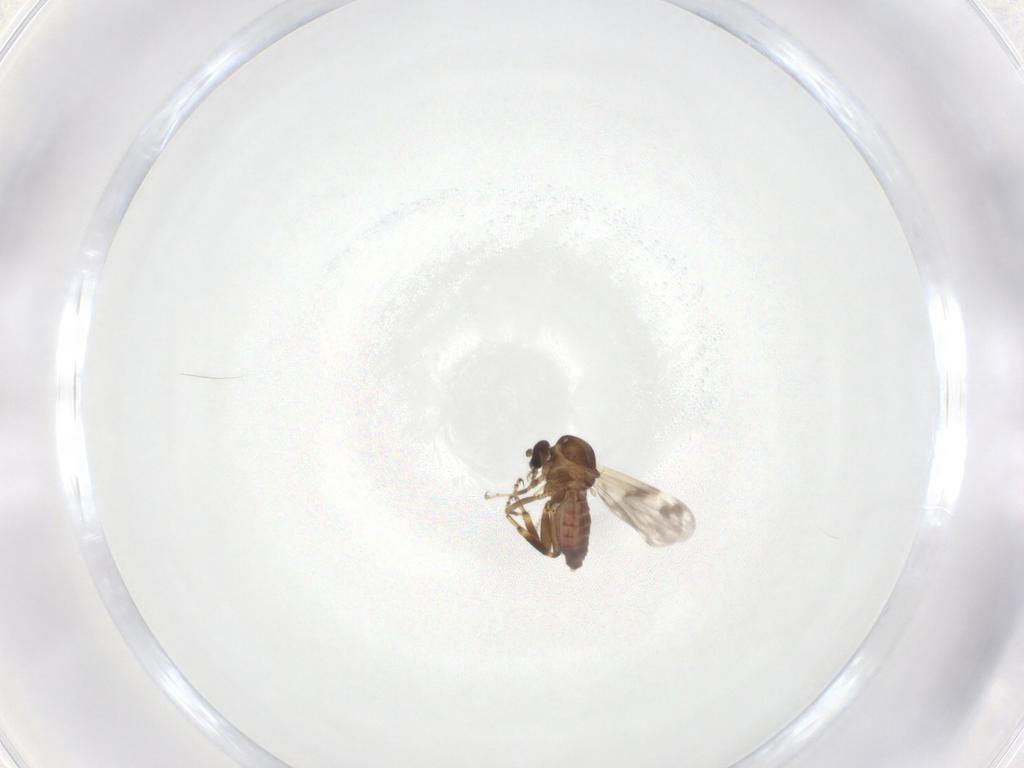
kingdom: Animalia
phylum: Arthropoda
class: Insecta
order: Diptera
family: Ceratopogonidae
